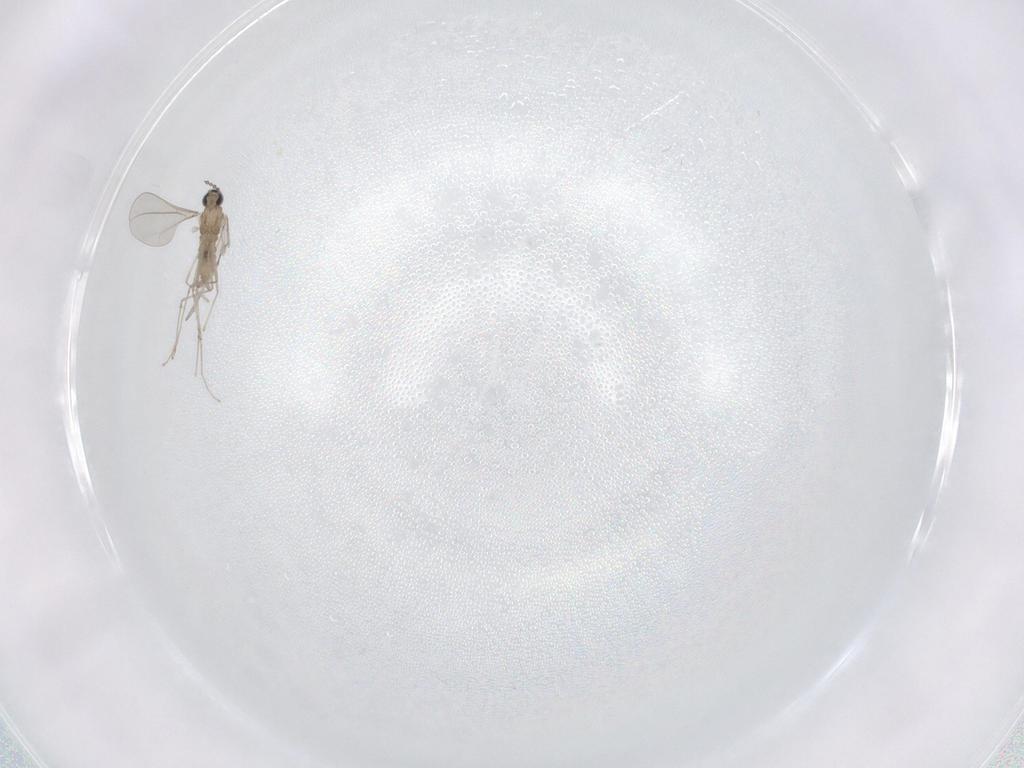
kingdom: Animalia
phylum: Arthropoda
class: Insecta
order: Diptera
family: Cecidomyiidae
